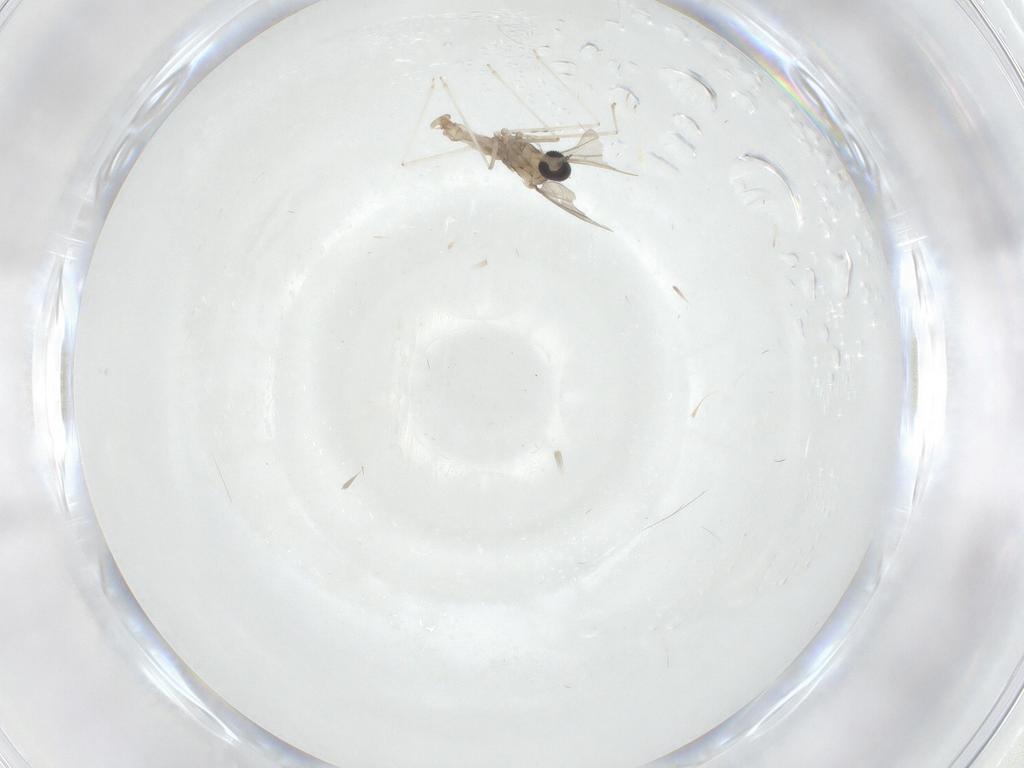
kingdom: Animalia
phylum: Arthropoda
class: Insecta
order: Diptera
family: Cecidomyiidae
